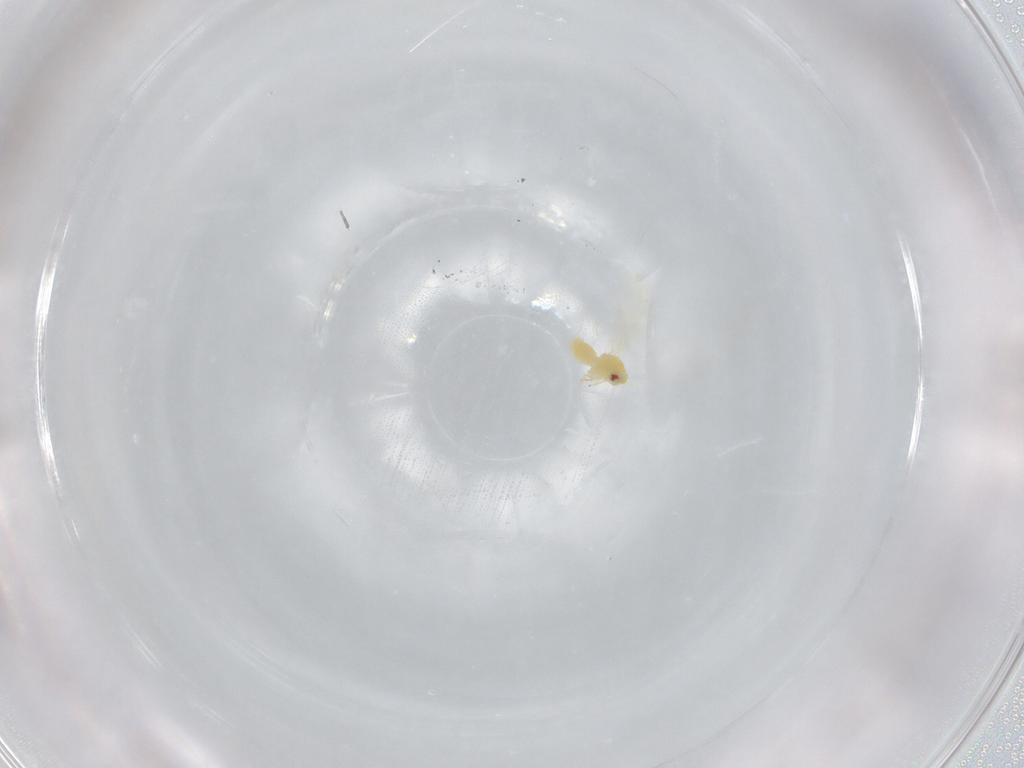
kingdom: Animalia
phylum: Arthropoda
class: Insecta
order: Hemiptera
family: Aleyrodidae
